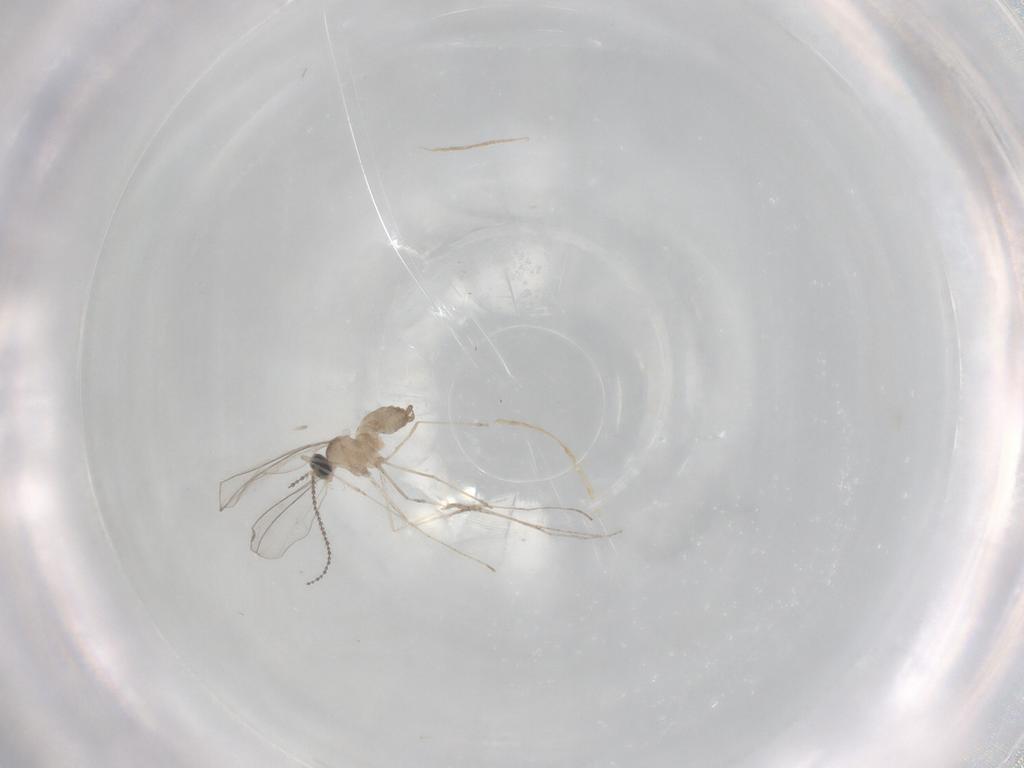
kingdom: Animalia
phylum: Arthropoda
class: Insecta
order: Diptera
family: Cecidomyiidae
